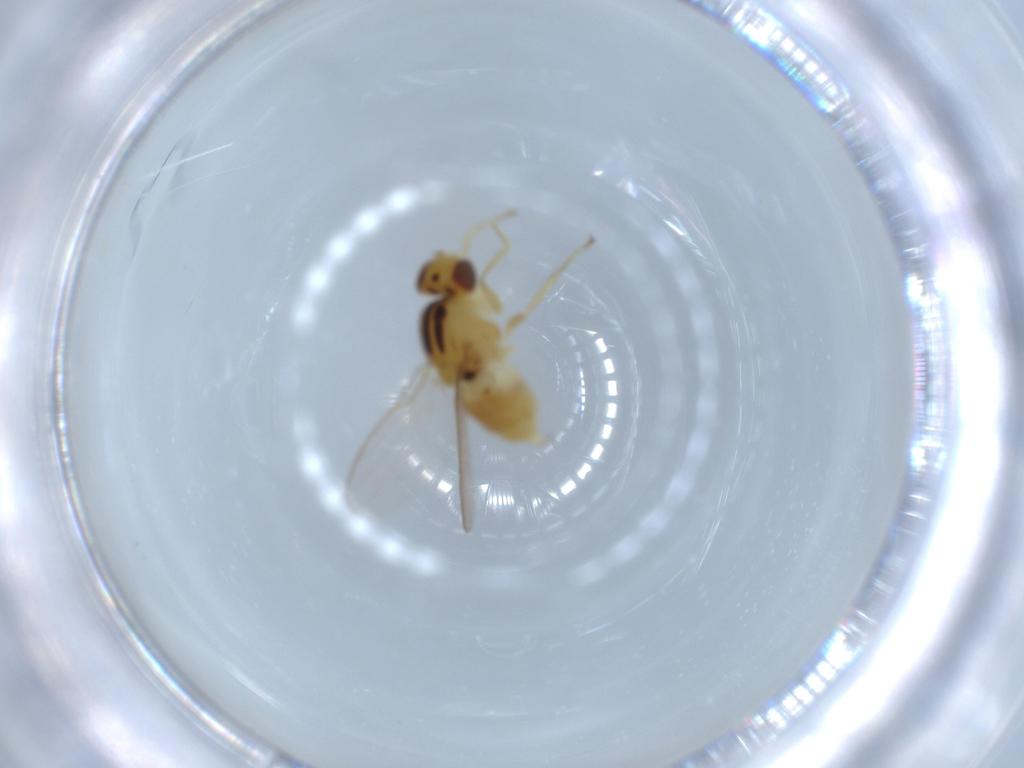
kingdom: Animalia
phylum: Arthropoda
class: Insecta
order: Diptera
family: Chloropidae
